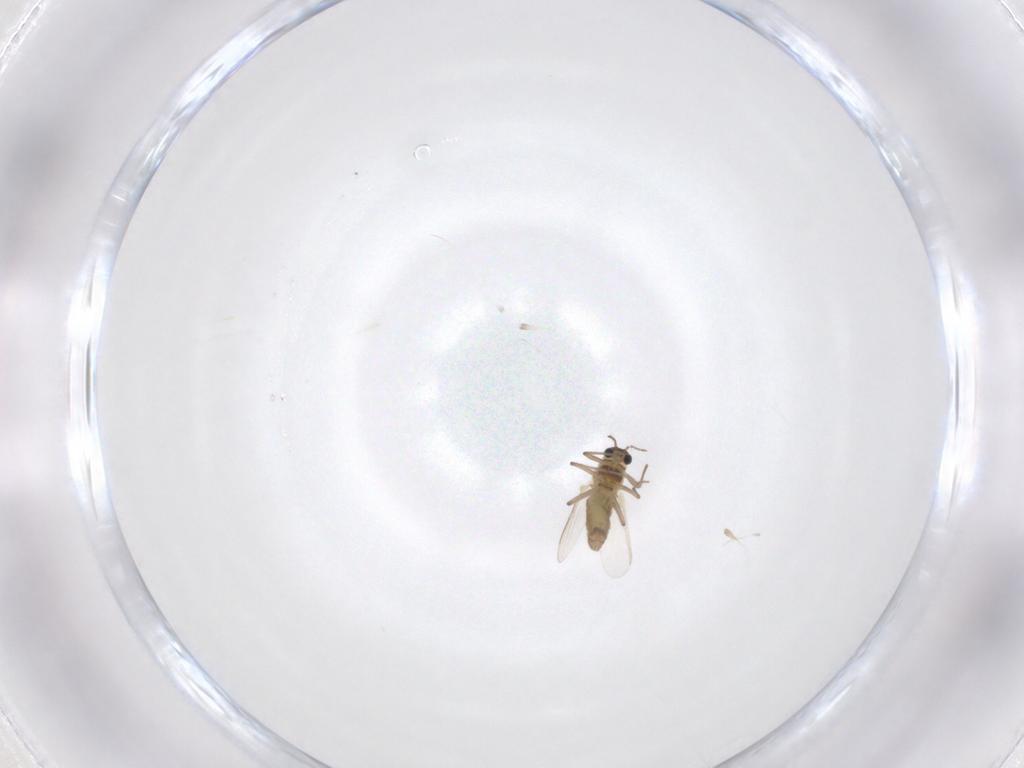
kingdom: Animalia
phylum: Arthropoda
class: Insecta
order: Diptera
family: Chironomidae
